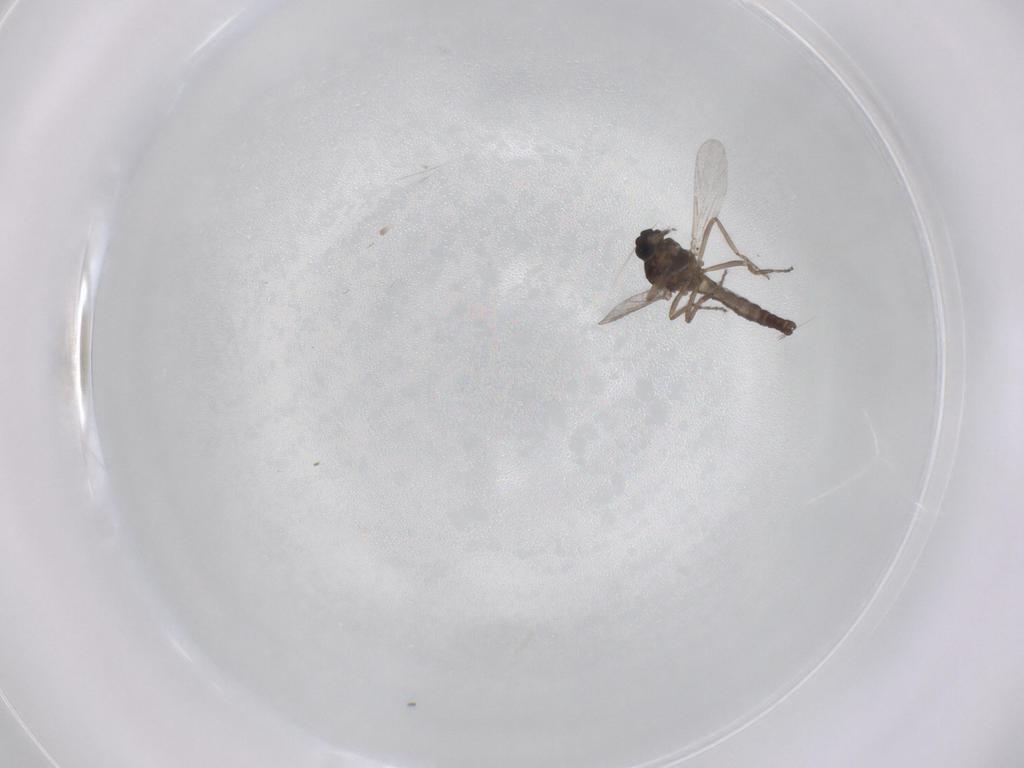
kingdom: Animalia
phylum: Arthropoda
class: Insecta
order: Diptera
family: Ceratopogonidae
